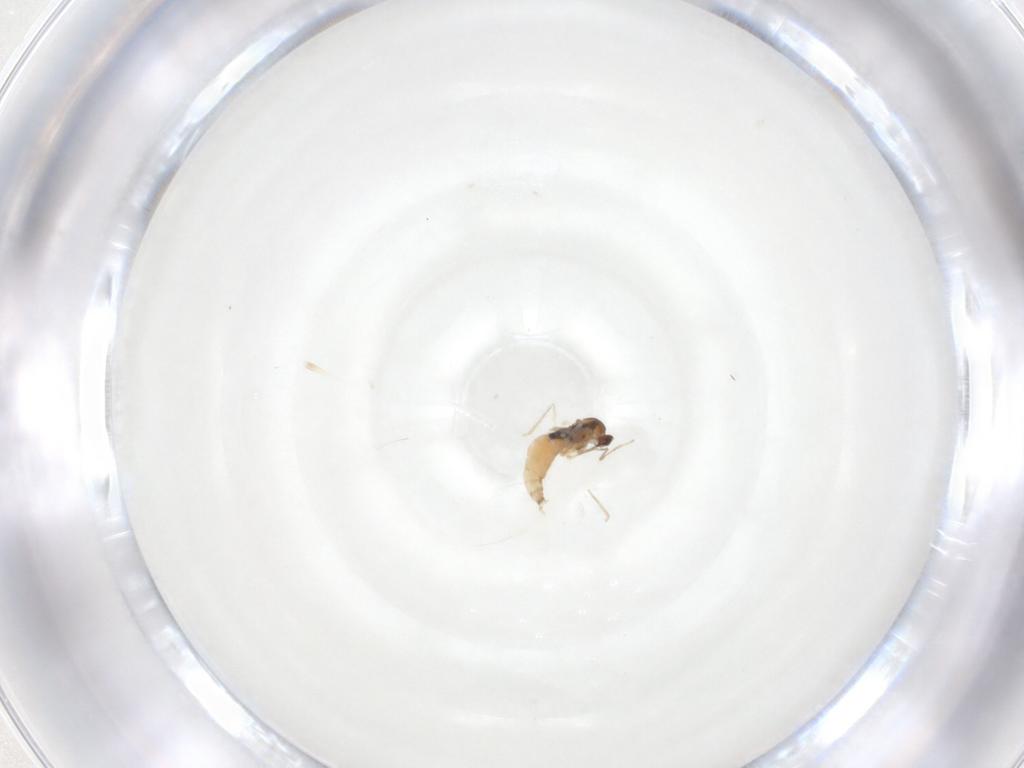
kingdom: Animalia
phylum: Arthropoda
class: Insecta
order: Diptera
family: Cecidomyiidae
